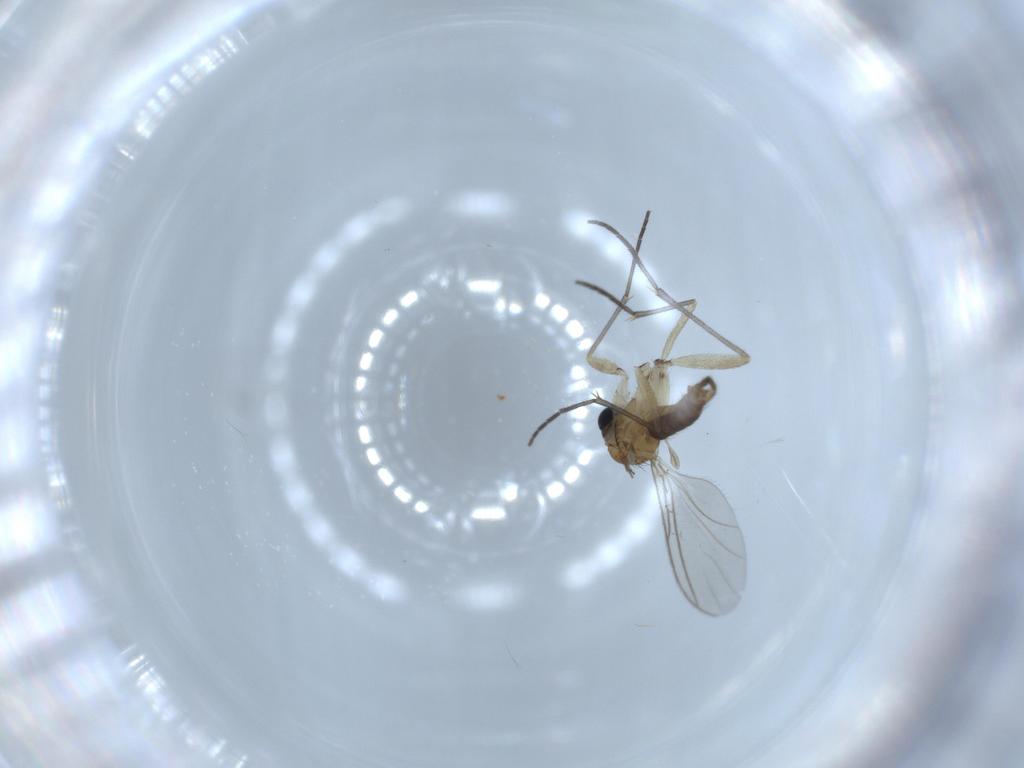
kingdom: Animalia
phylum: Arthropoda
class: Insecta
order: Diptera
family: Sciaridae
